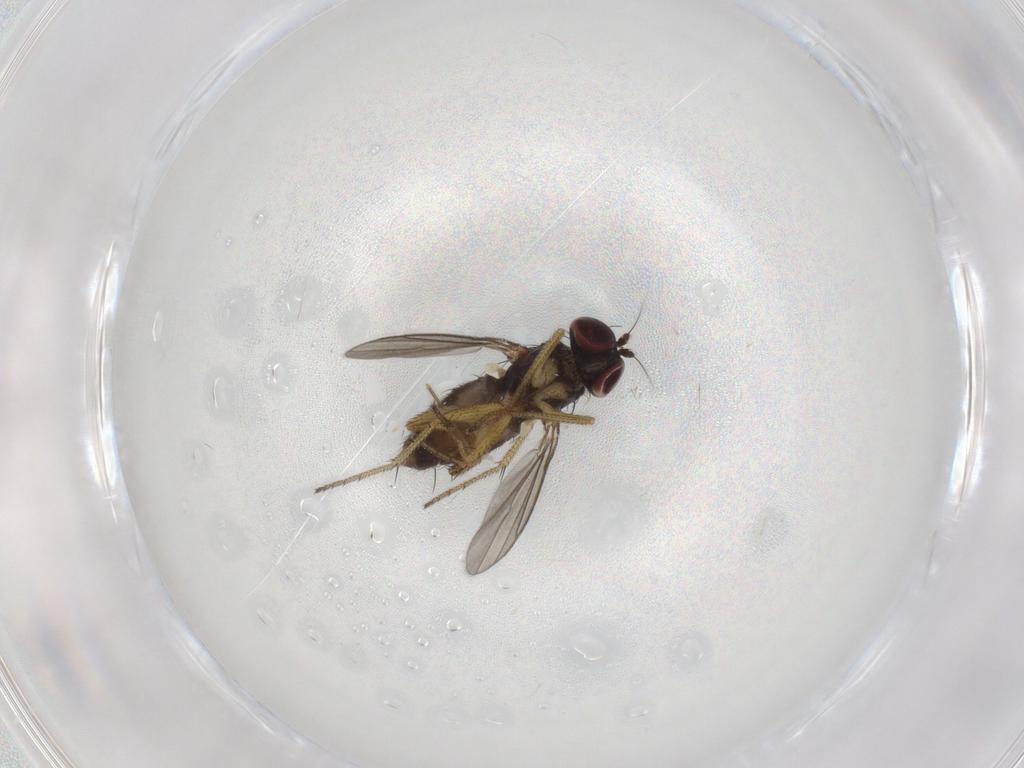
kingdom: Animalia
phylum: Arthropoda
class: Insecta
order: Diptera
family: Dolichopodidae
